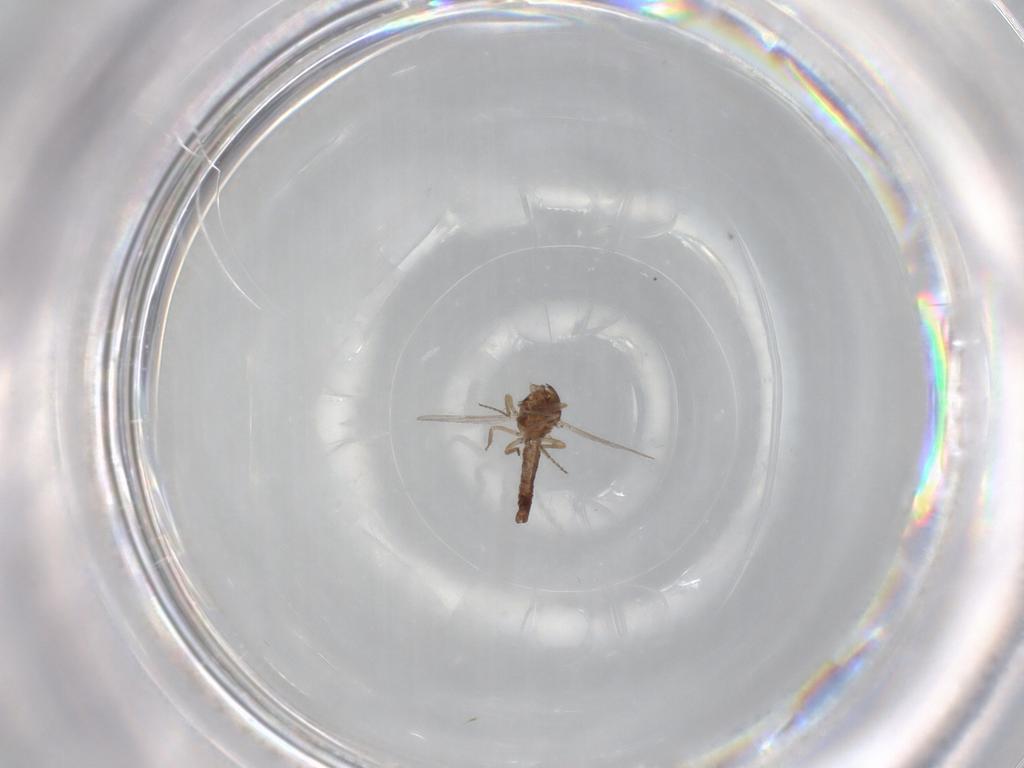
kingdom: Animalia
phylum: Arthropoda
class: Insecta
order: Diptera
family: Ceratopogonidae
